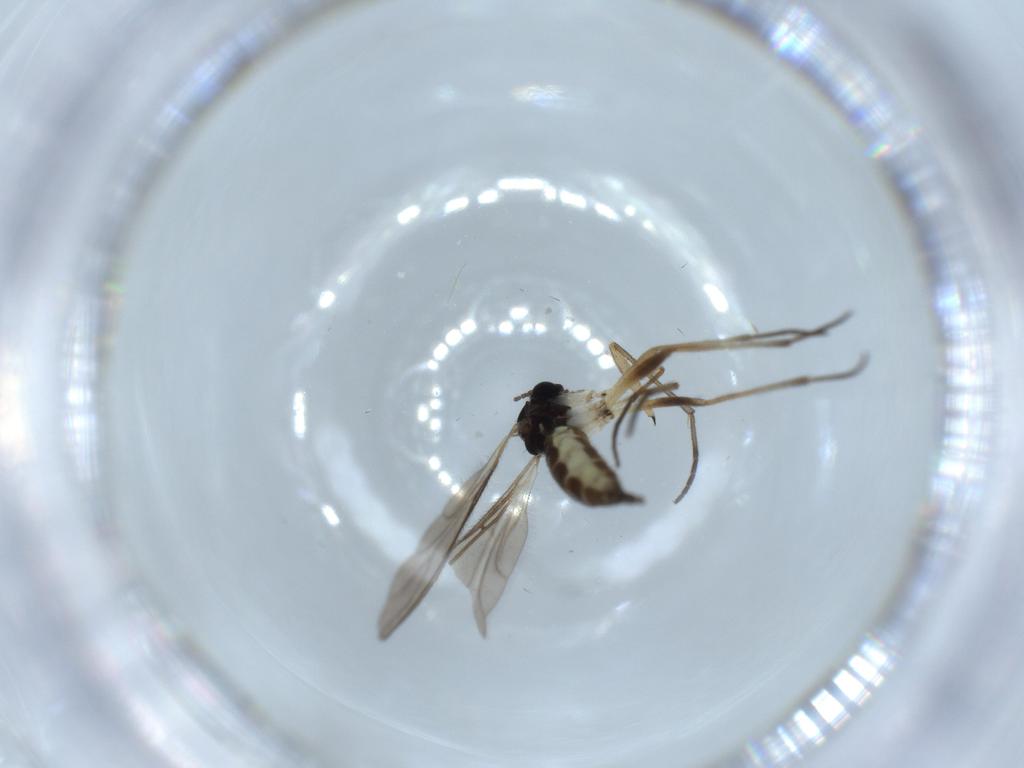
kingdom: Animalia
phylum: Arthropoda
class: Insecta
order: Diptera
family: Sciaridae
